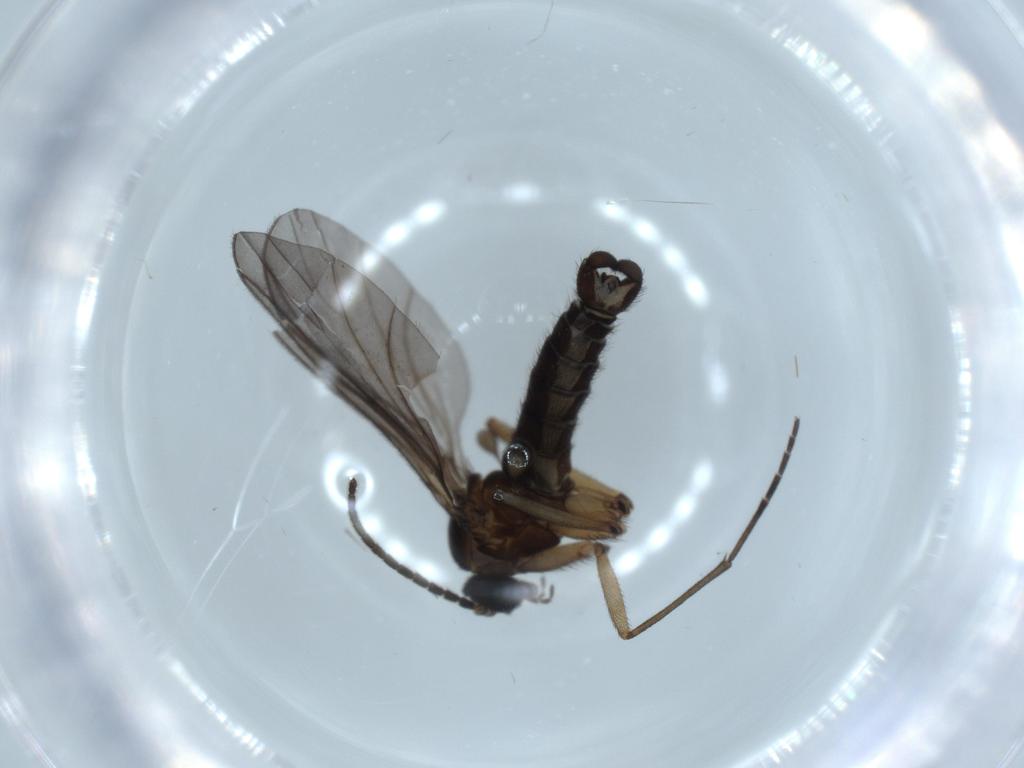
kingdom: Animalia
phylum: Arthropoda
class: Insecta
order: Diptera
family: Sciaridae
